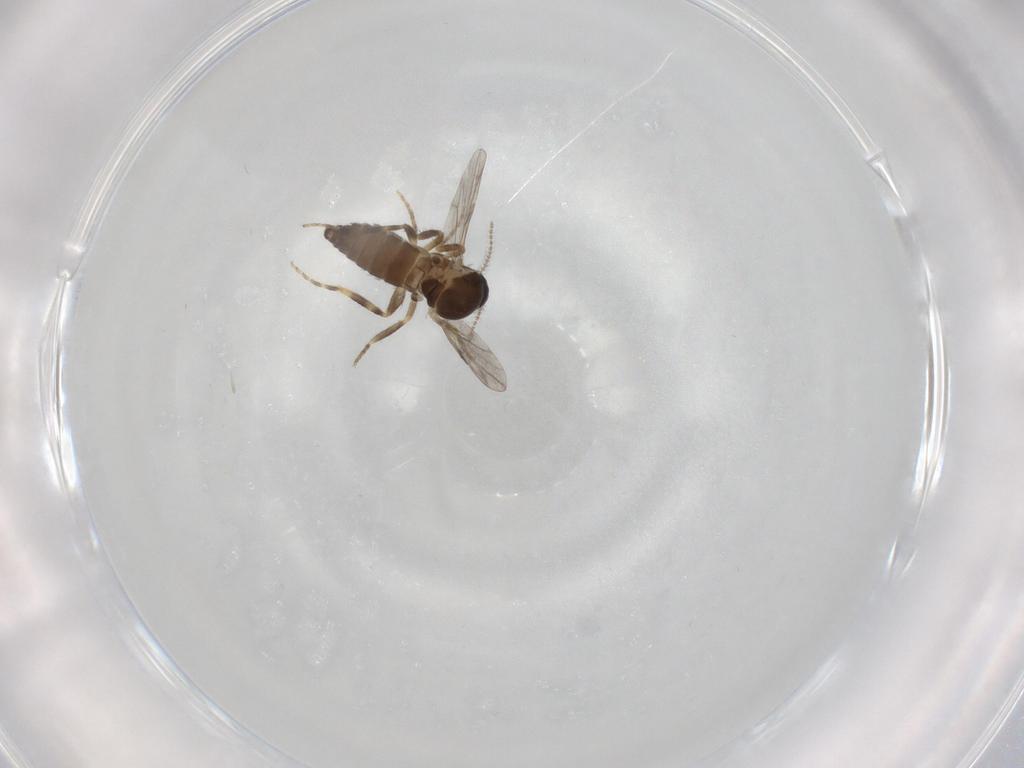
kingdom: Animalia
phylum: Arthropoda
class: Insecta
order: Diptera
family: Ceratopogonidae
